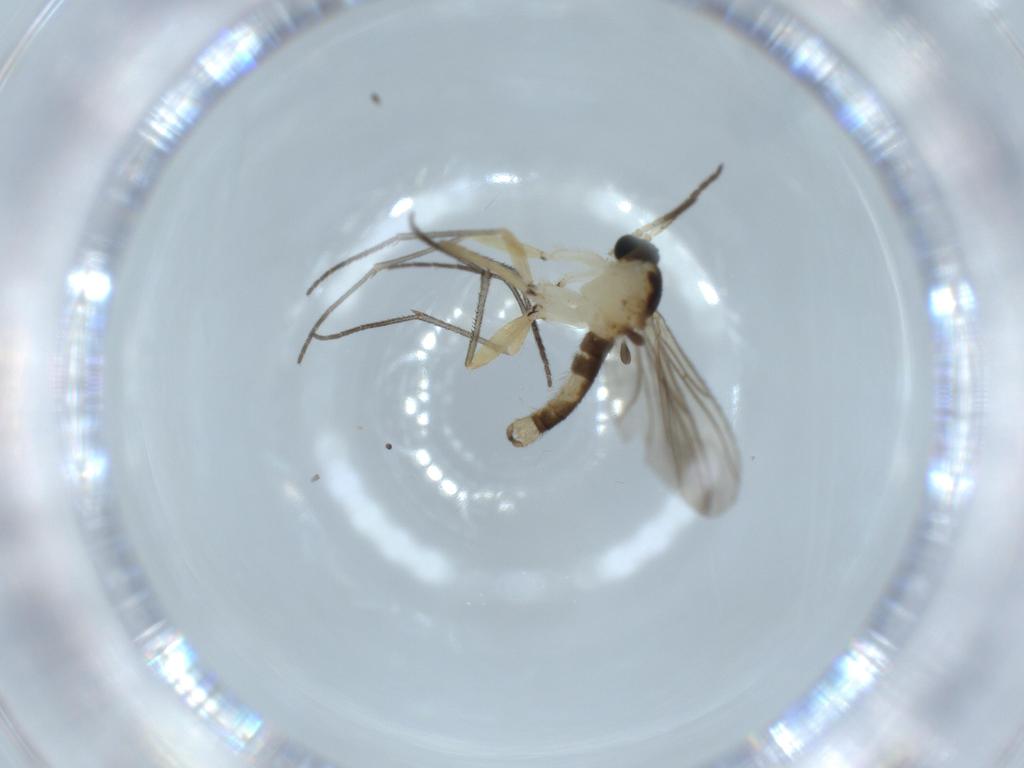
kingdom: Animalia
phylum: Arthropoda
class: Insecta
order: Diptera
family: Sciaridae
